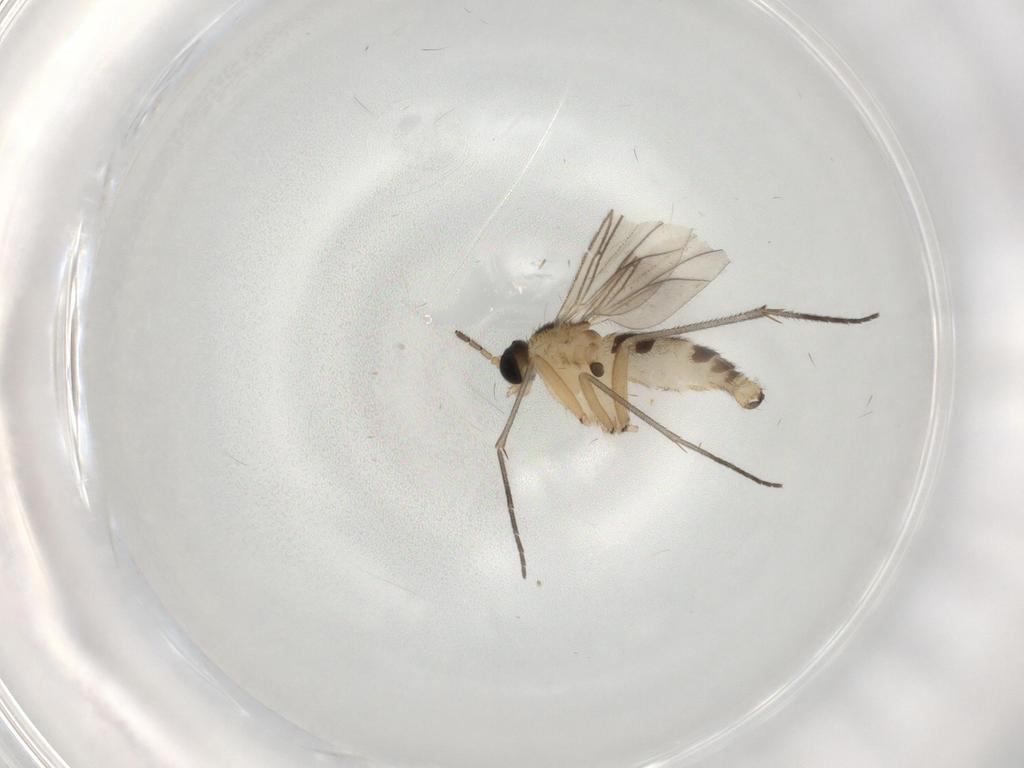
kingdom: Animalia
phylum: Arthropoda
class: Insecta
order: Diptera
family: Sciaridae
